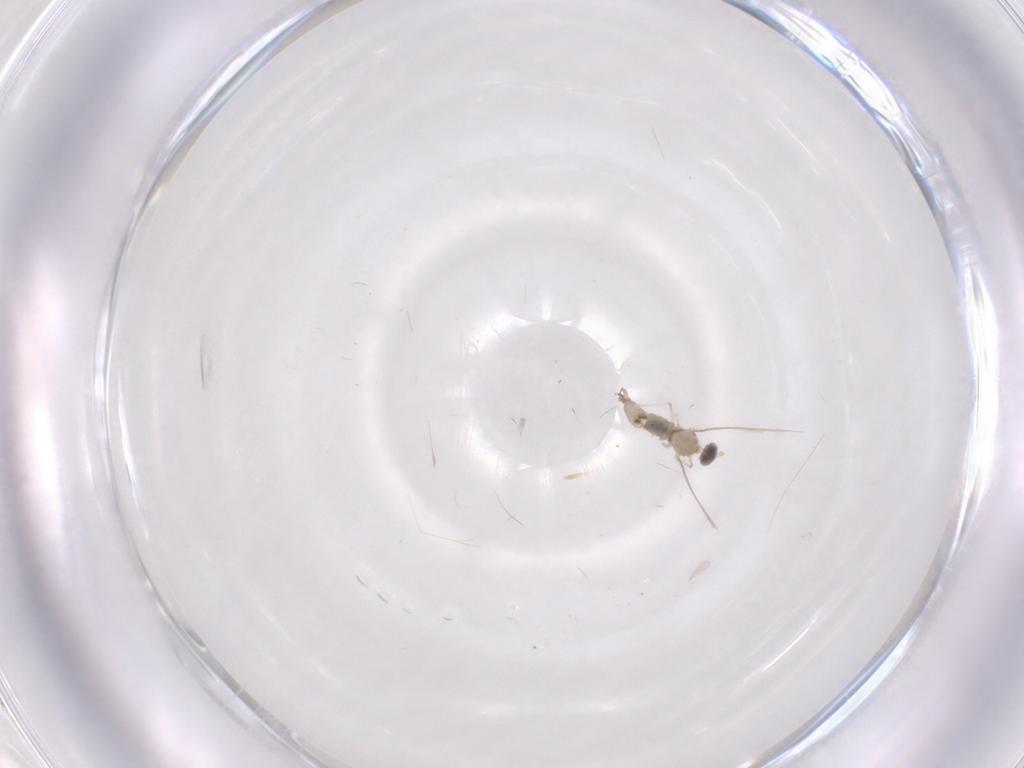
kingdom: Animalia
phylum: Arthropoda
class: Insecta
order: Diptera
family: Cecidomyiidae
